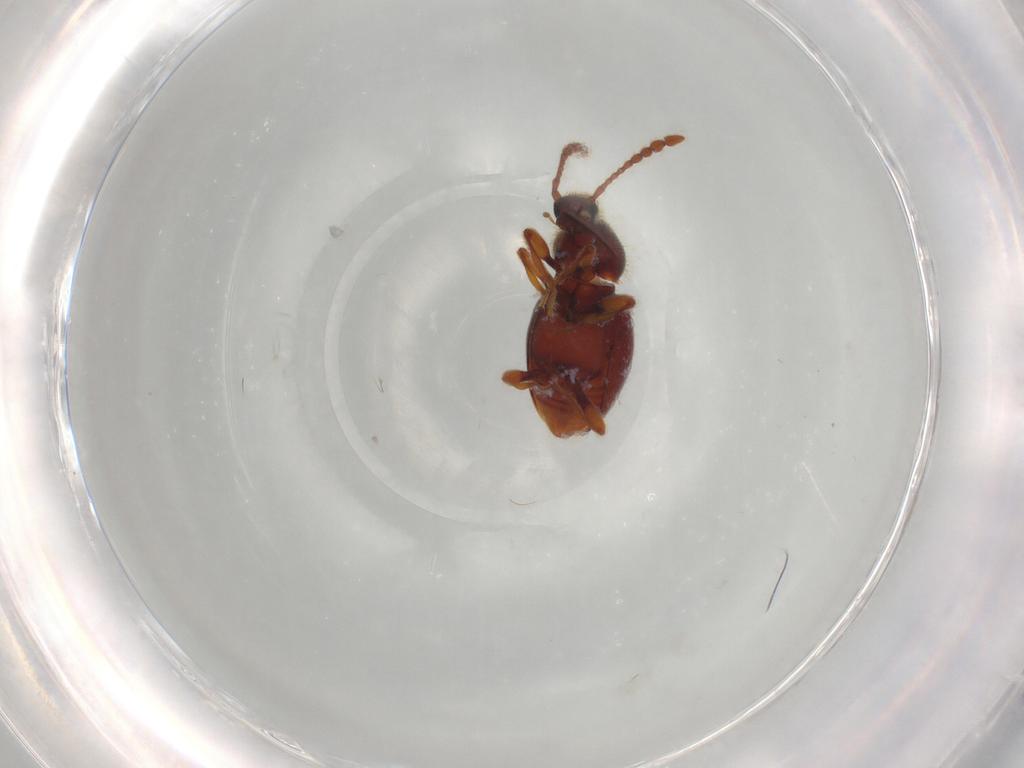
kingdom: Animalia
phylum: Arthropoda
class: Insecta
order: Coleoptera
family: Staphylinidae
